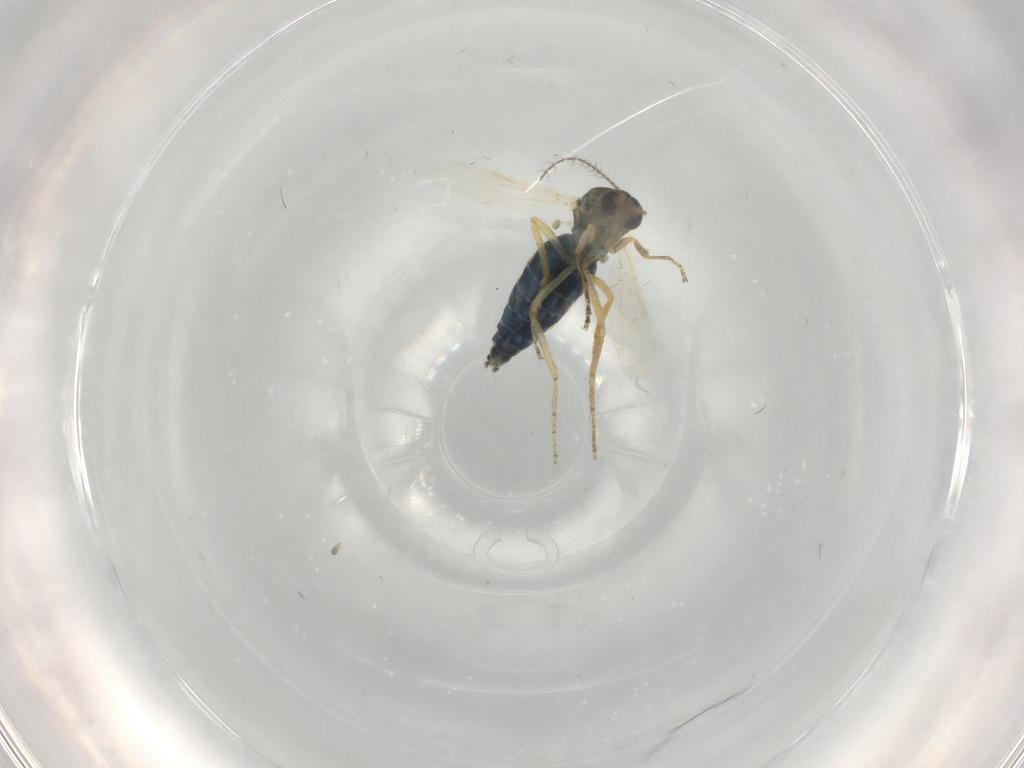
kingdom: Animalia
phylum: Arthropoda
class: Insecta
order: Diptera
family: Ceratopogonidae
